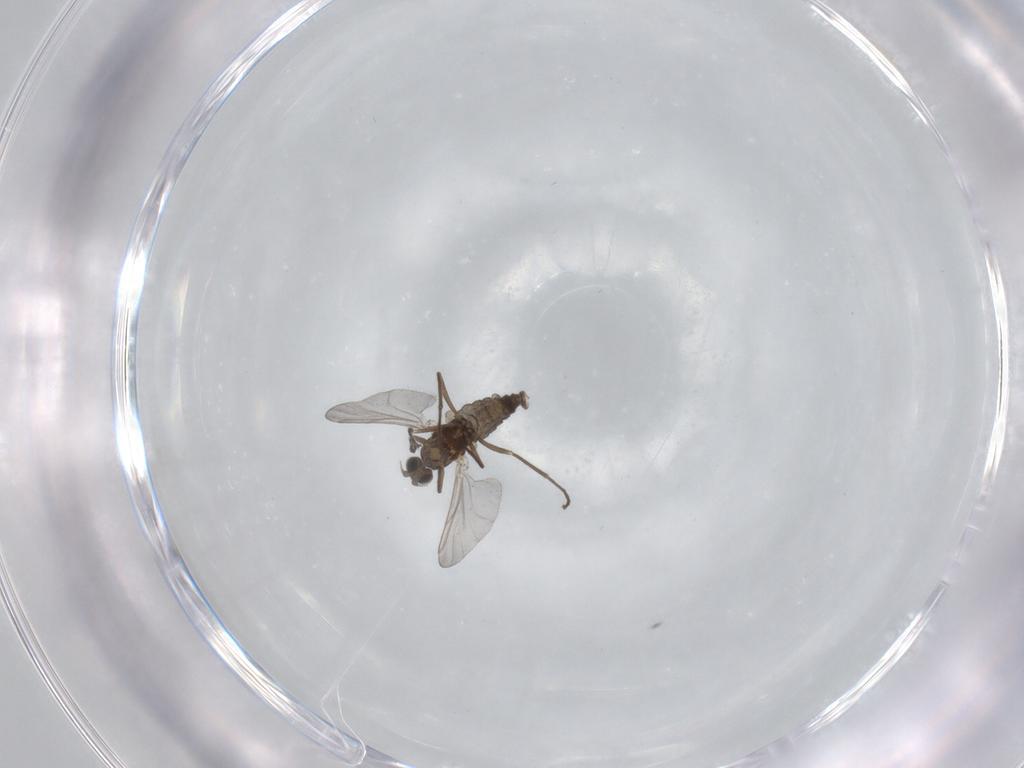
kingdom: Animalia
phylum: Arthropoda
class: Insecta
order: Diptera
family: Cecidomyiidae
